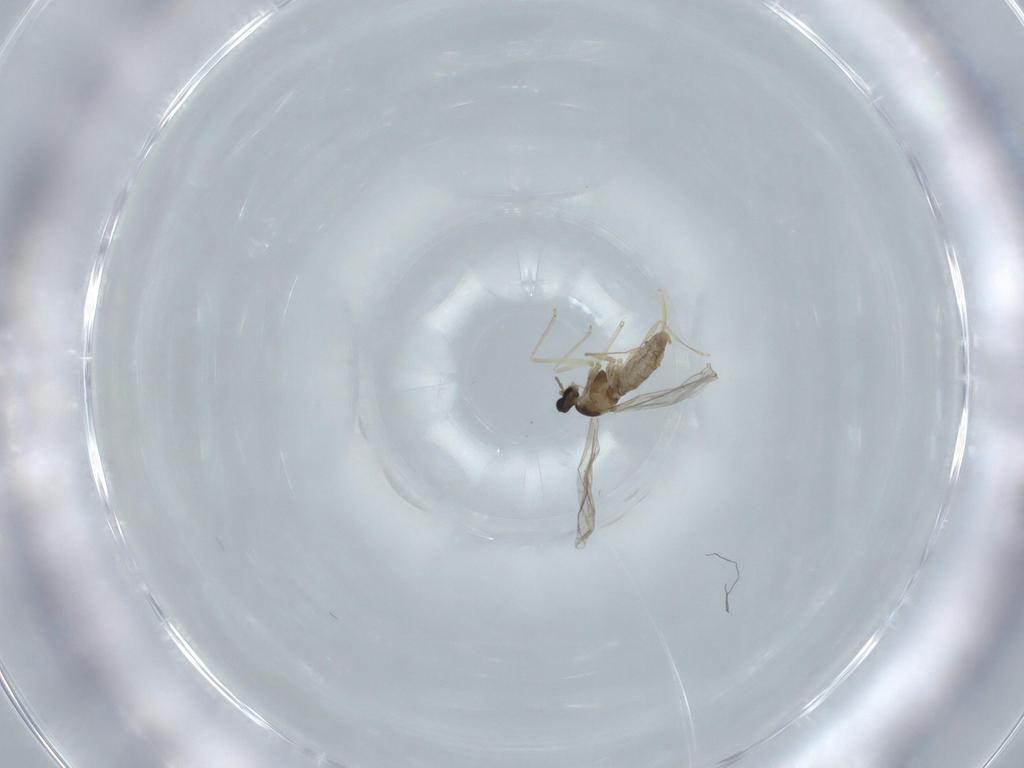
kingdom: Animalia
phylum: Arthropoda
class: Insecta
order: Diptera
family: Cecidomyiidae
